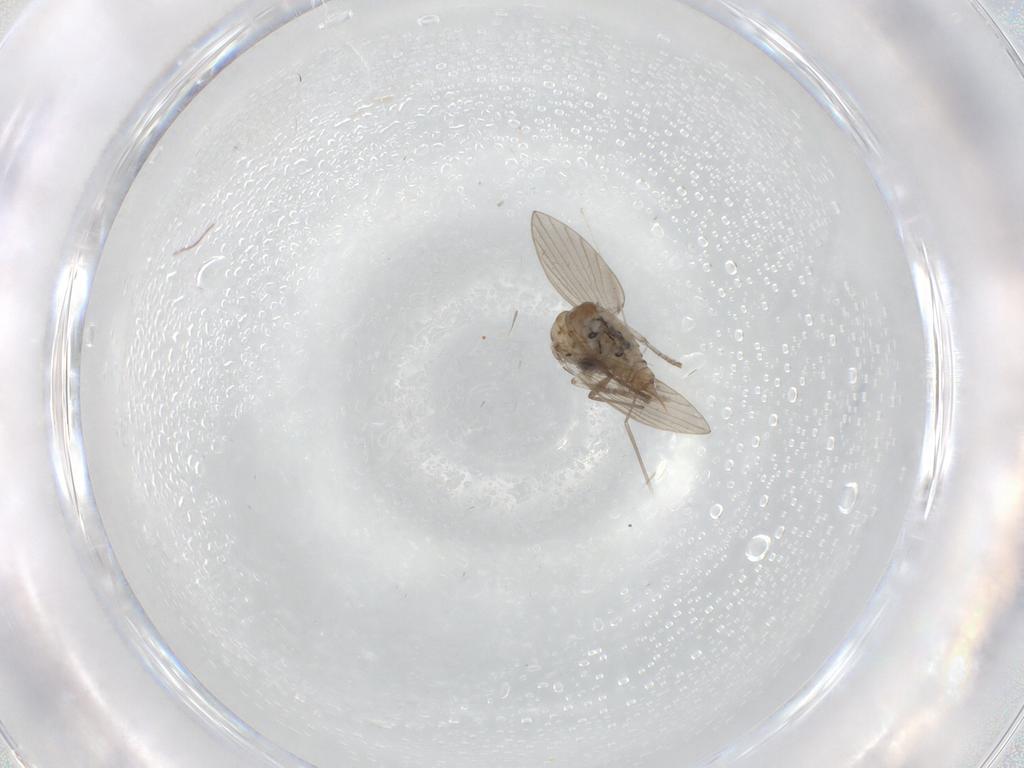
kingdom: Animalia
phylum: Arthropoda
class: Insecta
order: Diptera
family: Psychodidae
